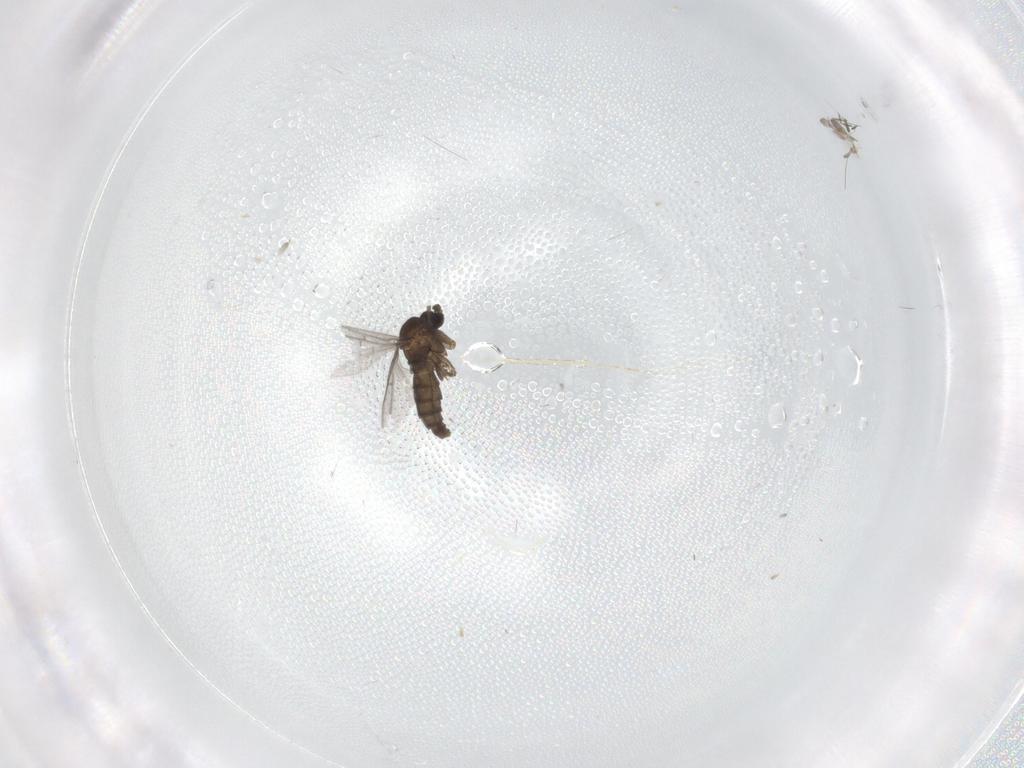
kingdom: Animalia
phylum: Arthropoda
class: Insecta
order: Diptera
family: Sciaridae
